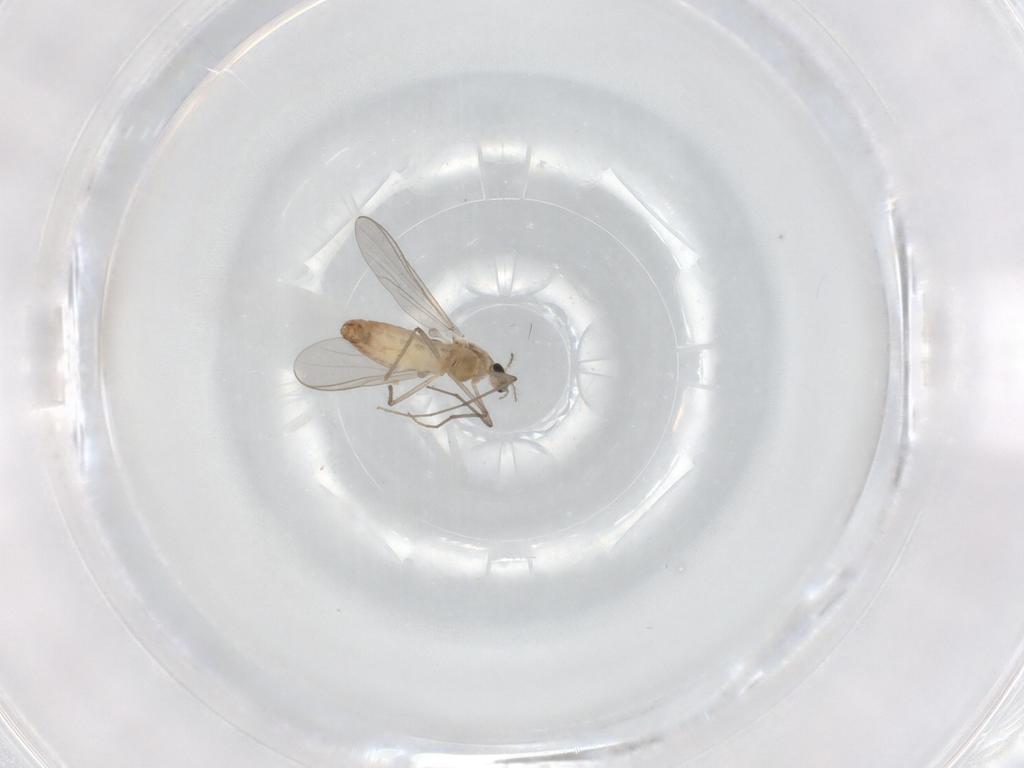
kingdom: Animalia
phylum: Arthropoda
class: Insecta
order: Diptera
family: Chironomidae
